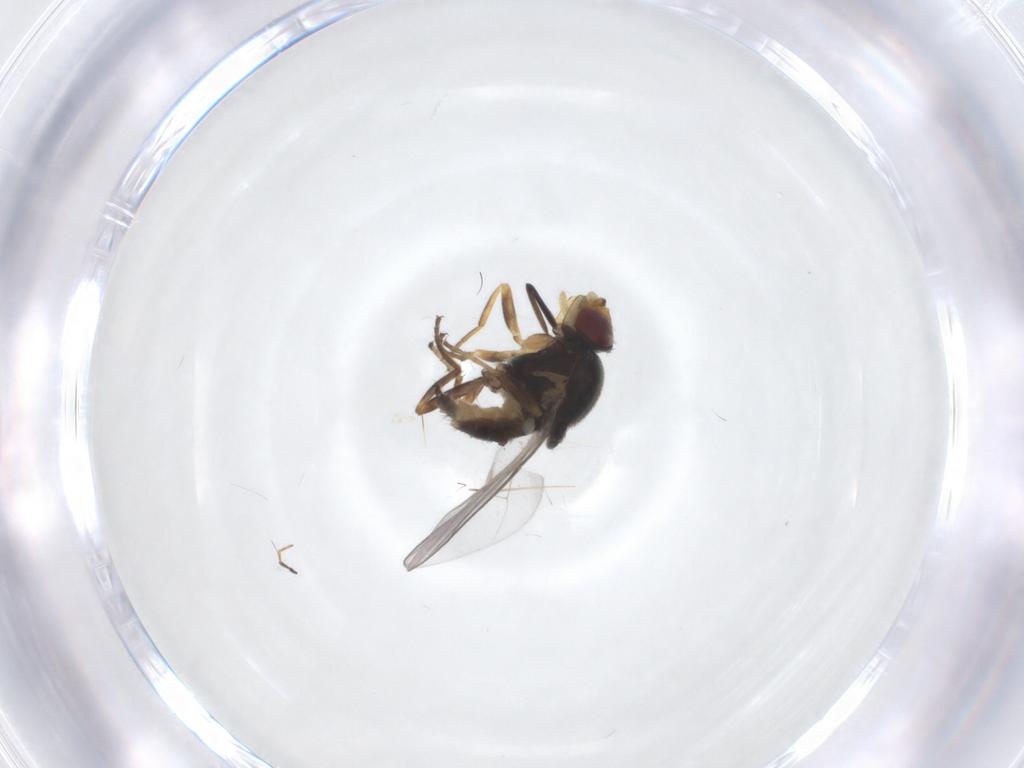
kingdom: Animalia
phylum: Arthropoda
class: Insecta
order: Diptera
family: Chloropidae
